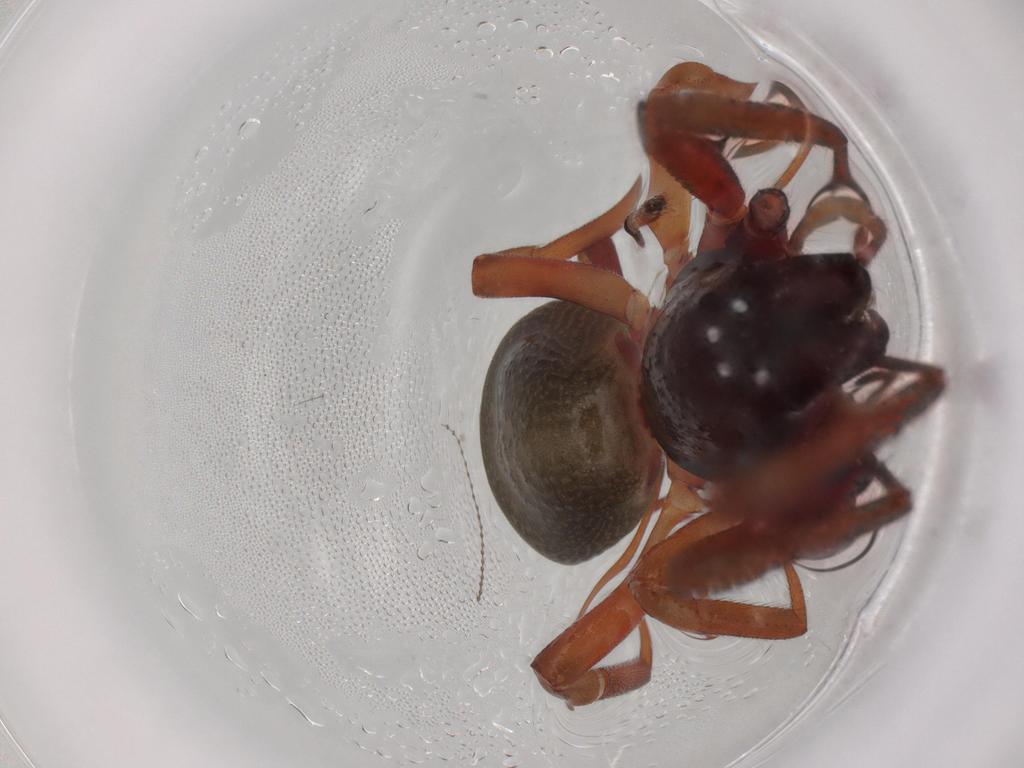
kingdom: Animalia
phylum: Arthropoda
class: Arachnida
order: Araneae
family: Trachelidae
